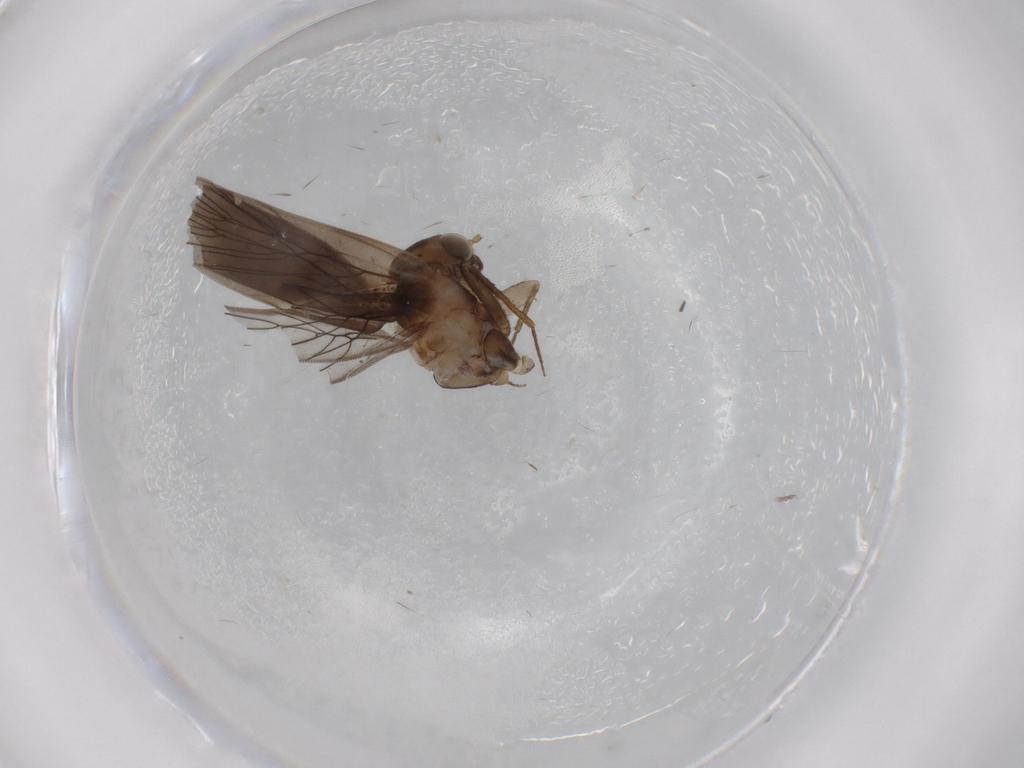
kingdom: Animalia
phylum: Arthropoda
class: Insecta
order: Psocodea
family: Lepidopsocidae
